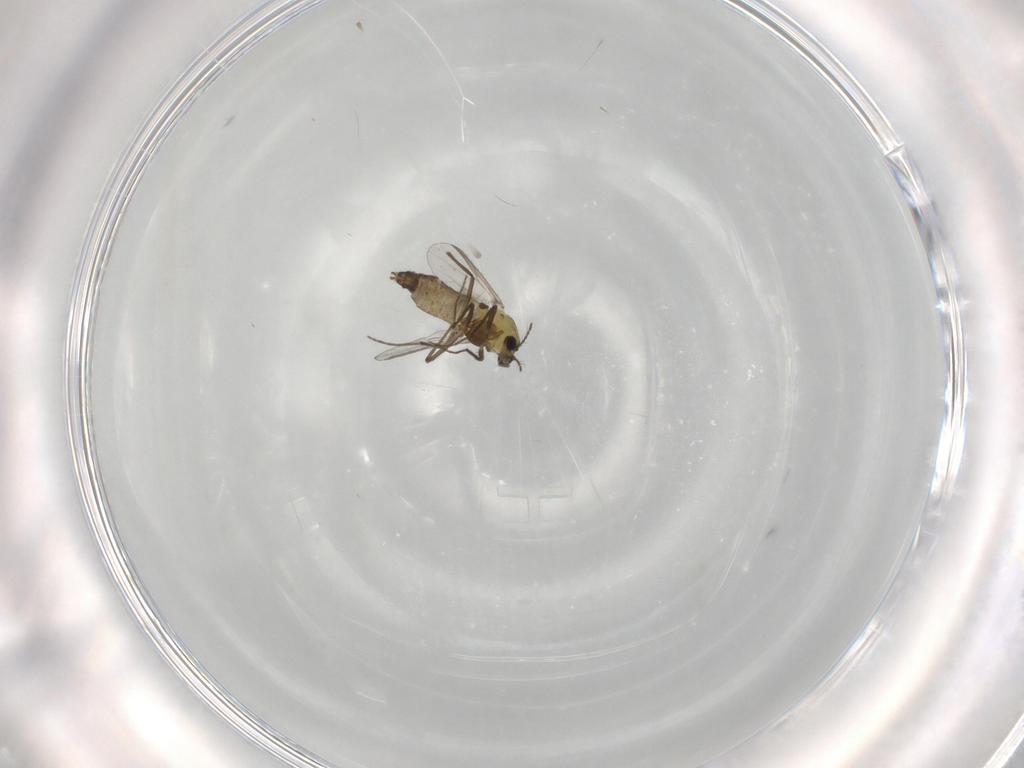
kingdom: Animalia
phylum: Arthropoda
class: Insecta
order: Diptera
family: Chironomidae
